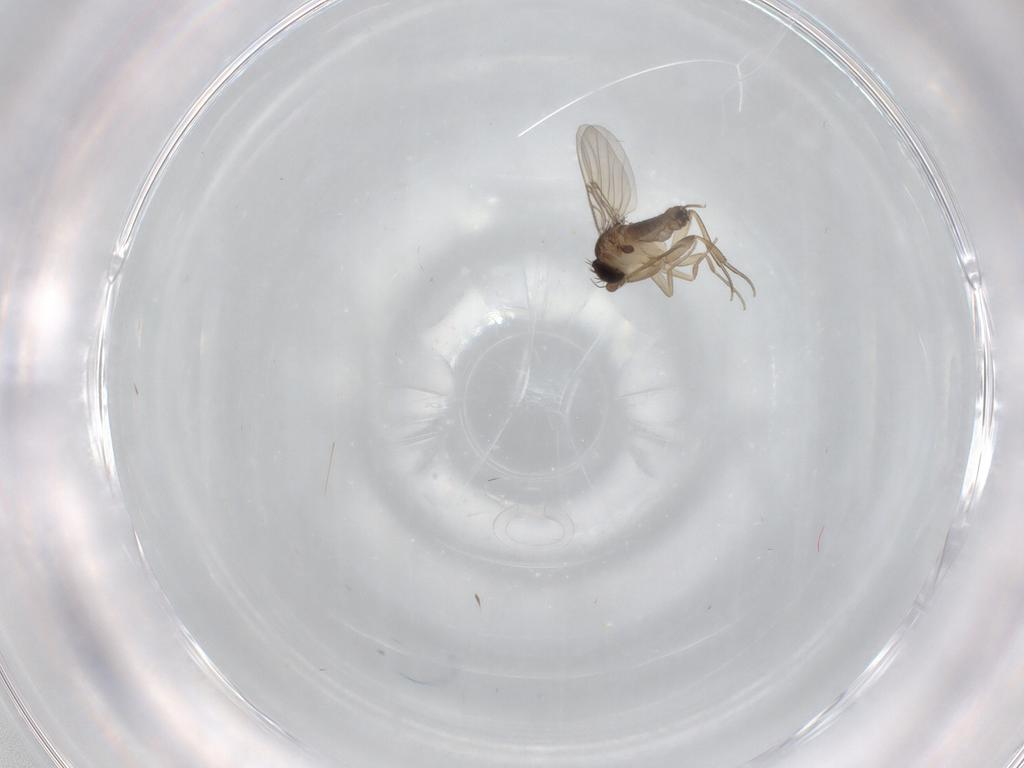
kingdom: Animalia
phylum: Arthropoda
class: Insecta
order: Diptera
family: Phoridae
